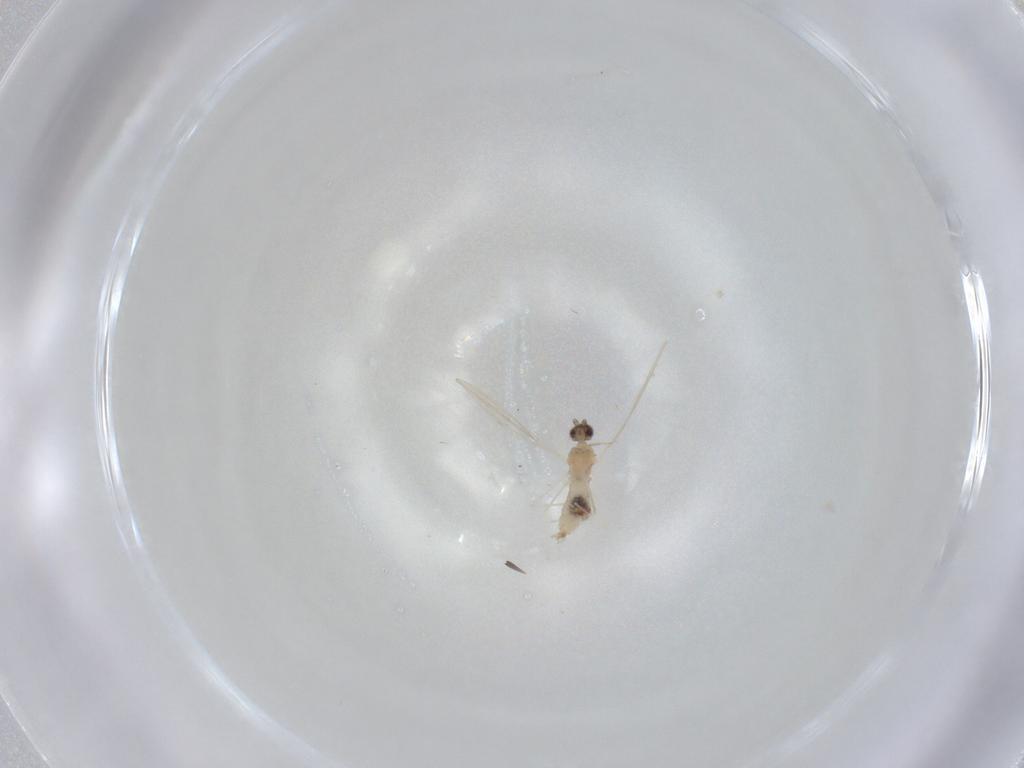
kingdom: Animalia
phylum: Arthropoda
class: Insecta
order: Diptera
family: Cecidomyiidae
